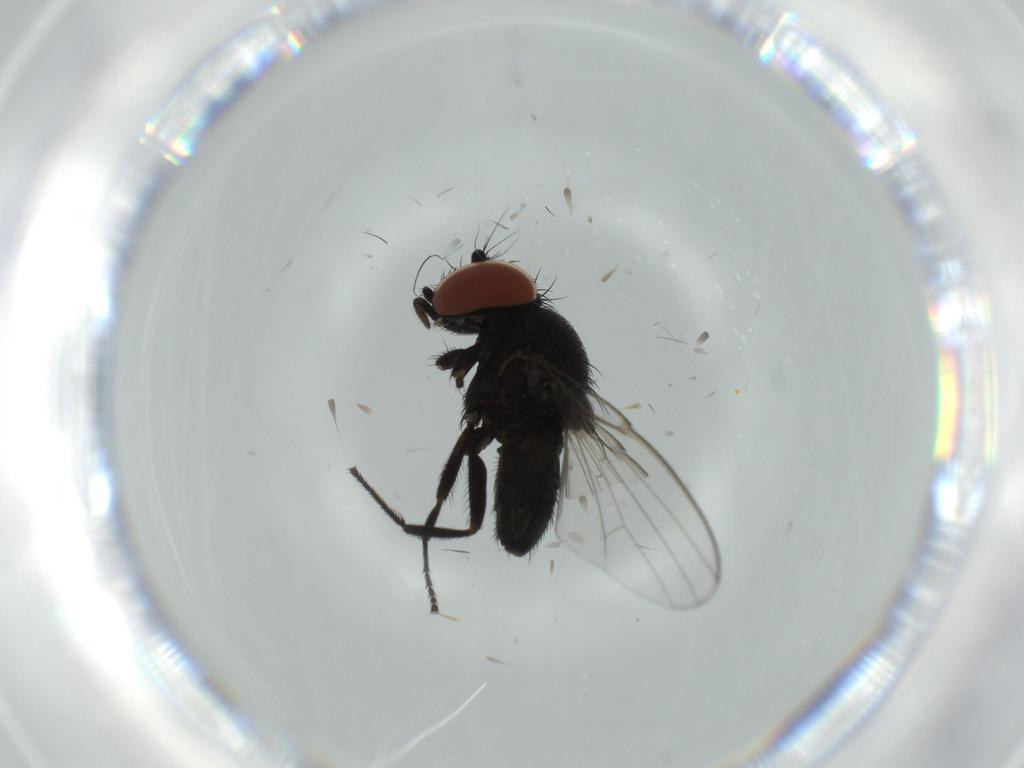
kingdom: Animalia
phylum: Arthropoda
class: Insecta
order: Diptera
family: Milichiidae
